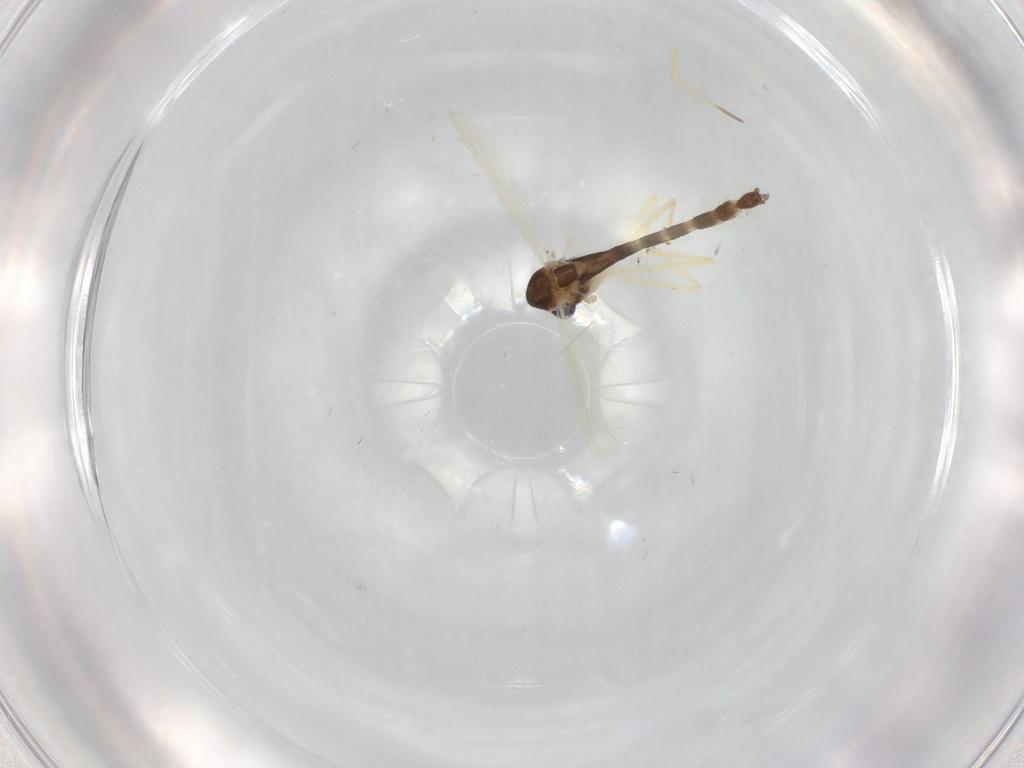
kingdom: Animalia
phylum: Arthropoda
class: Insecta
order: Diptera
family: Chironomidae
